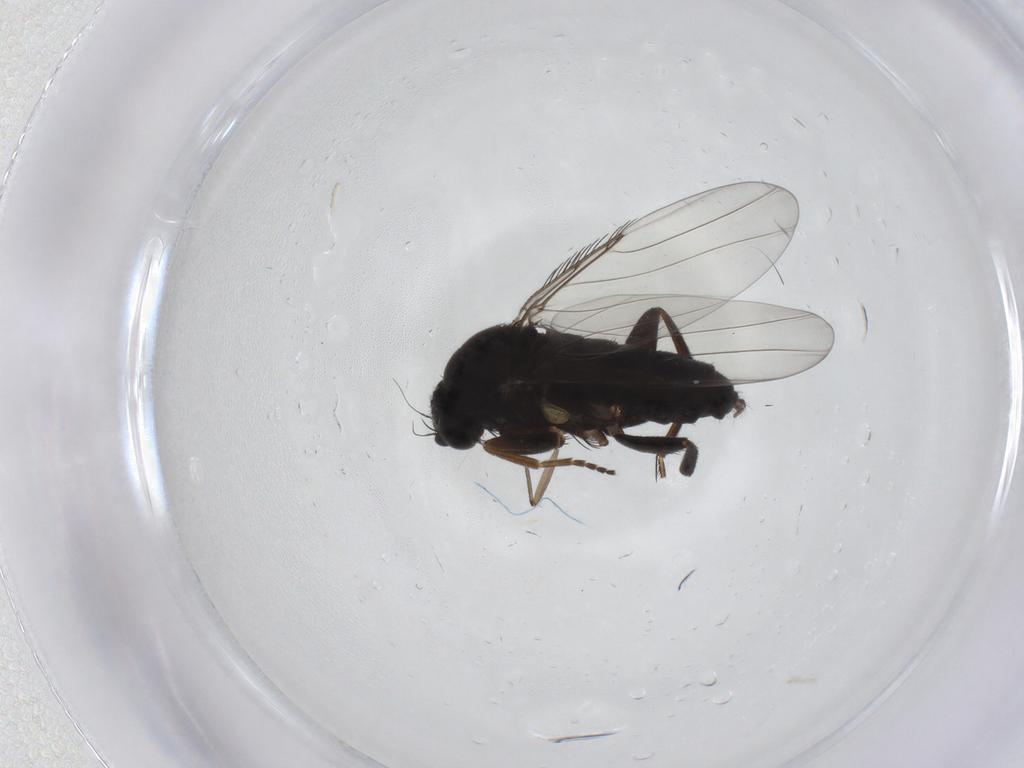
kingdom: Animalia
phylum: Arthropoda
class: Insecta
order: Diptera
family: Phoridae
